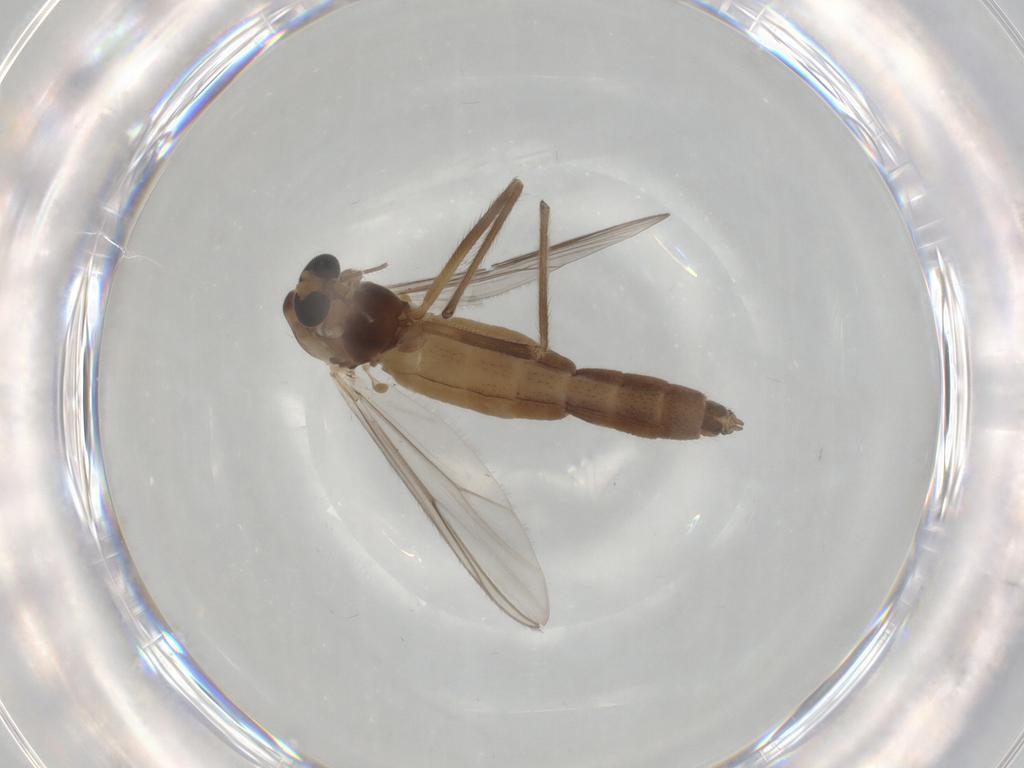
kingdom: Animalia
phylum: Arthropoda
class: Insecta
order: Diptera
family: Chironomidae
